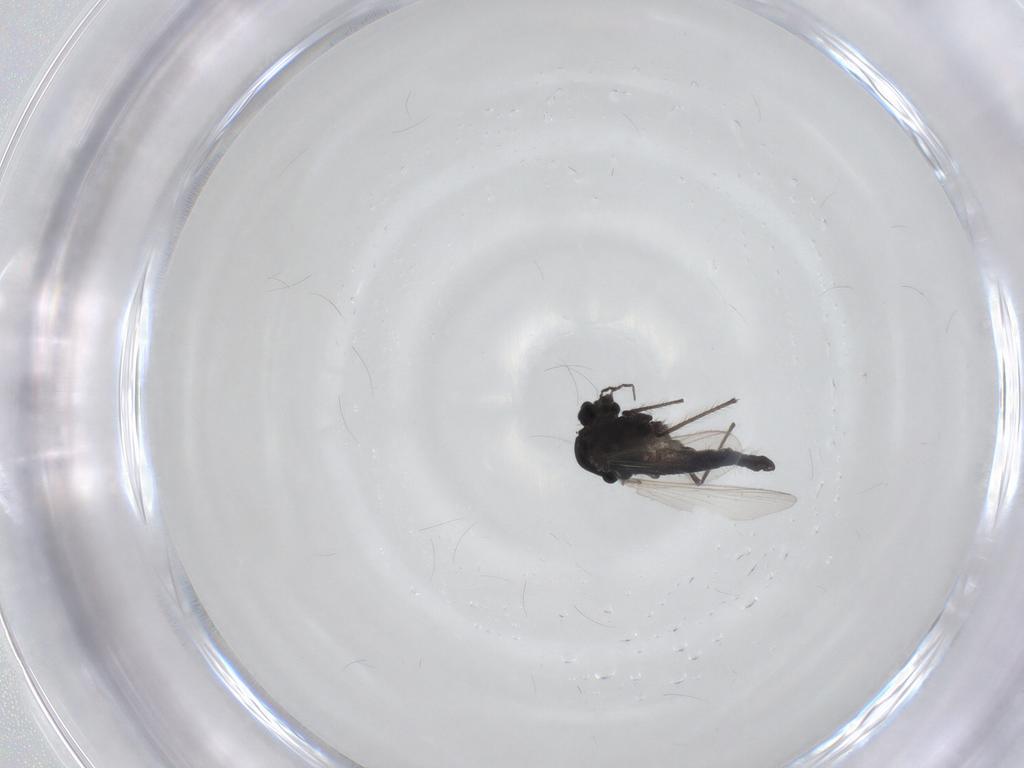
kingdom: Animalia
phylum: Arthropoda
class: Insecta
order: Diptera
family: Chironomidae
